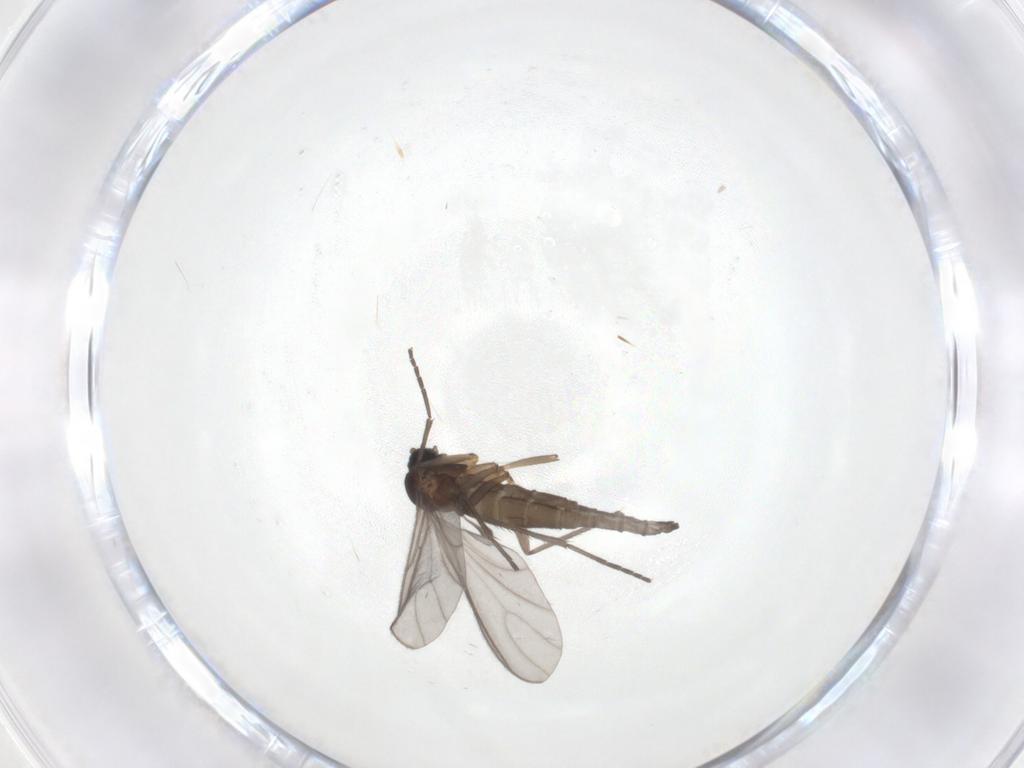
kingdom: Animalia
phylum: Arthropoda
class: Insecta
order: Diptera
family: Sciaridae
